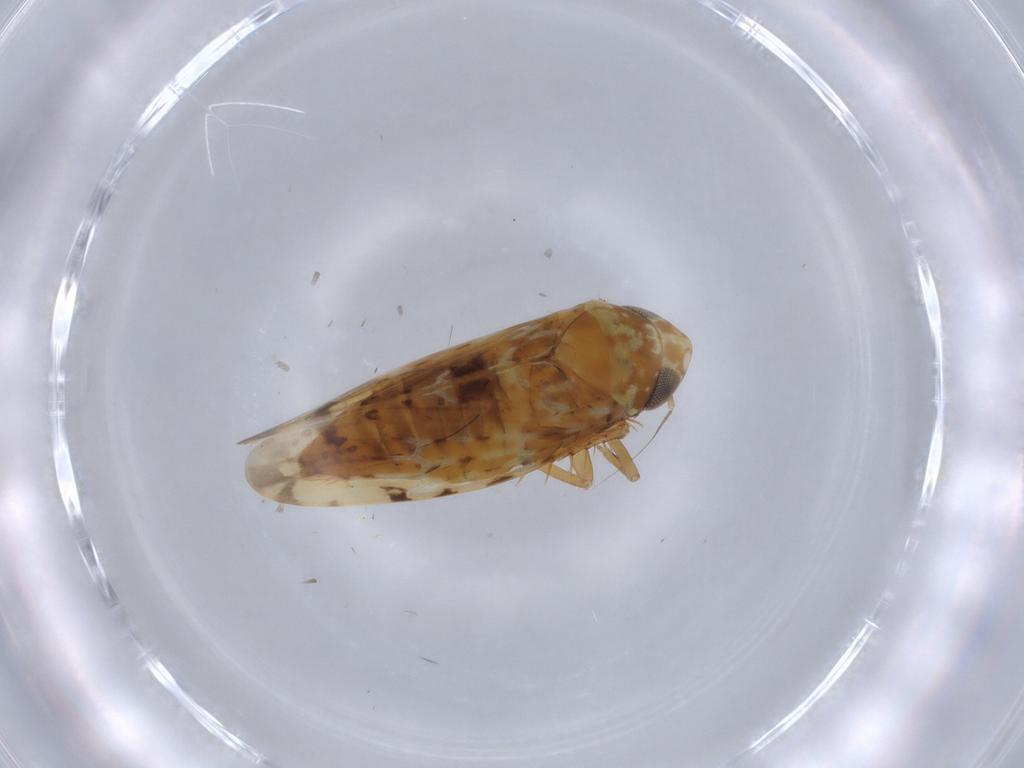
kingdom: Animalia
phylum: Arthropoda
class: Insecta
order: Hemiptera
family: Cicadellidae
